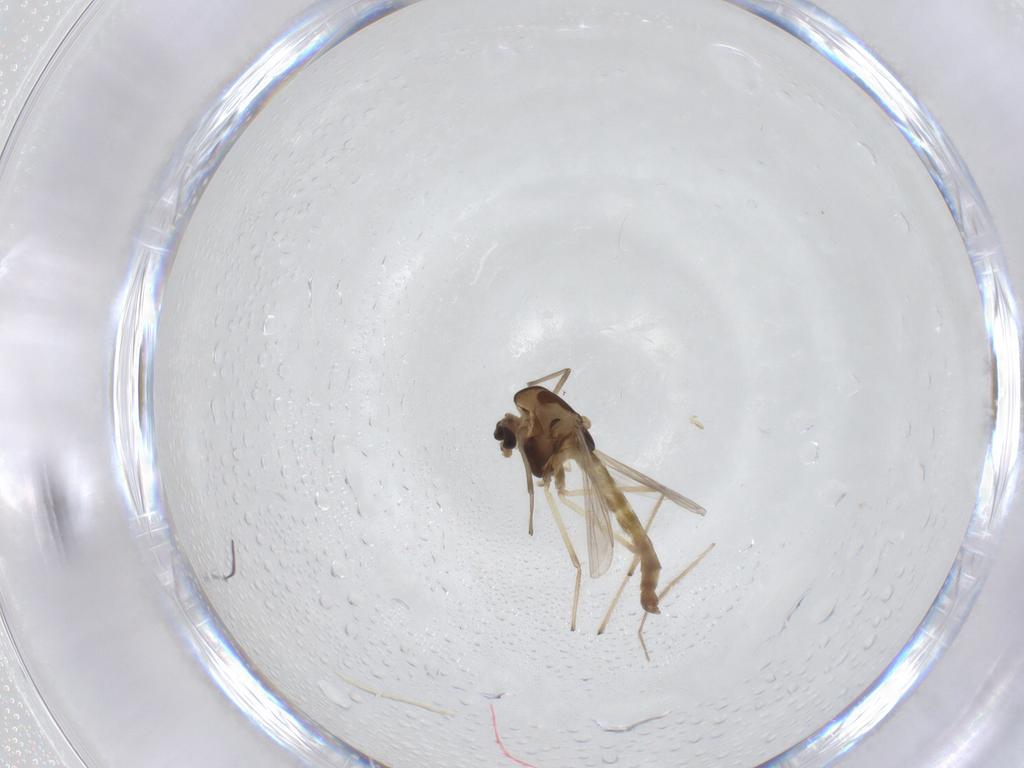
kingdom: Animalia
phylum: Arthropoda
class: Insecta
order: Diptera
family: Chironomidae
